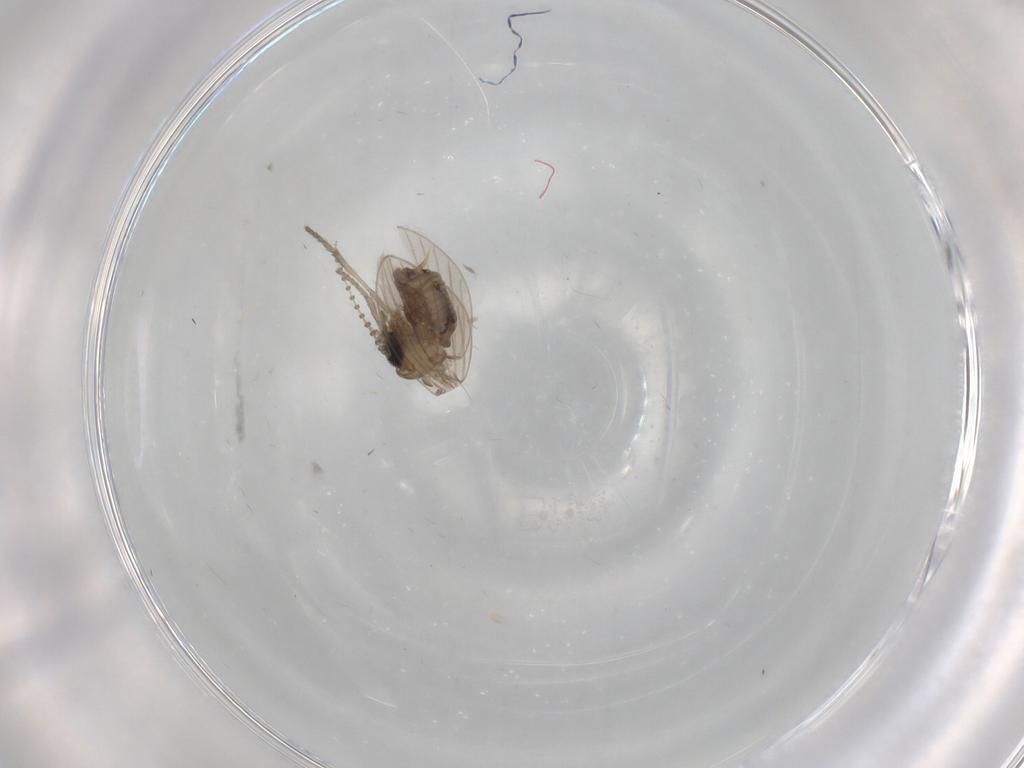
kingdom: Animalia
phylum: Arthropoda
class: Insecta
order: Diptera
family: Psychodidae
